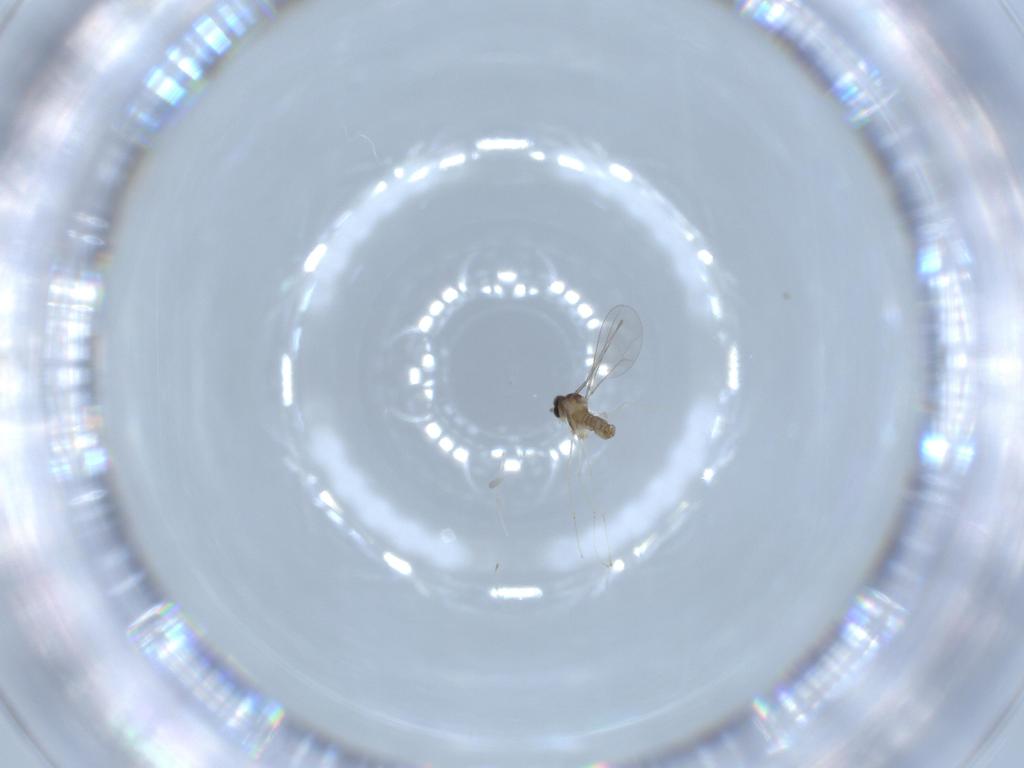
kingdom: Animalia
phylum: Arthropoda
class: Insecta
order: Diptera
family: Cecidomyiidae
